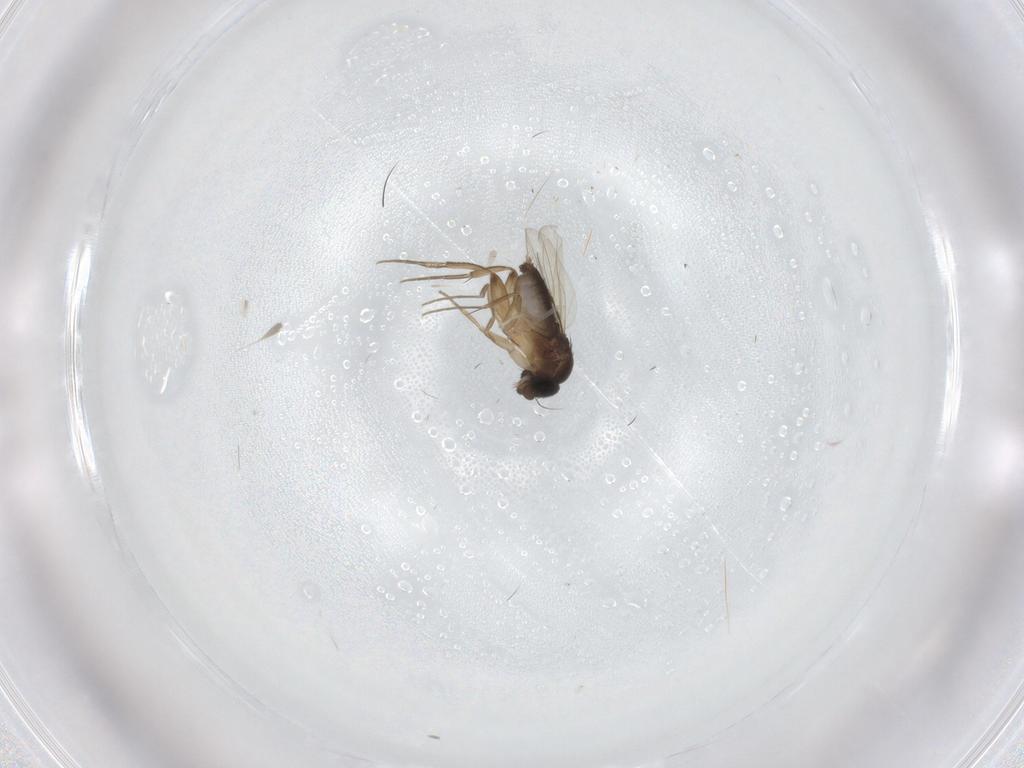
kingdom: Animalia
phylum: Arthropoda
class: Insecta
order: Diptera
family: Phoridae
